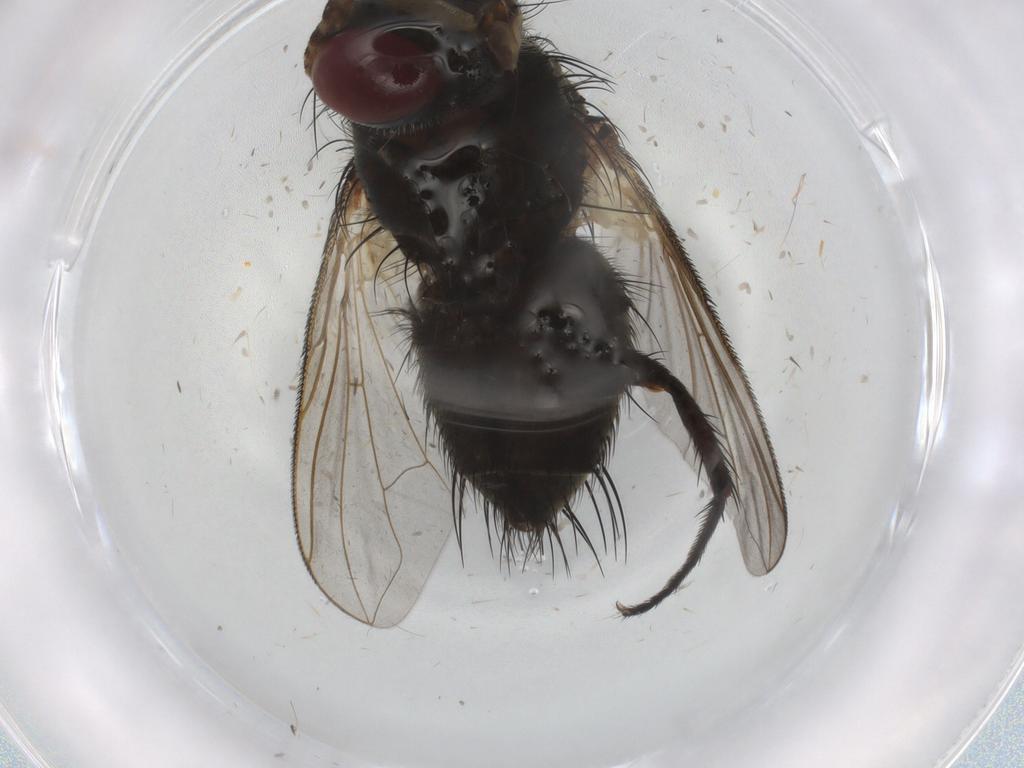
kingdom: Animalia
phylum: Arthropoda
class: Insecta
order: Diptera
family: Tachinidae
